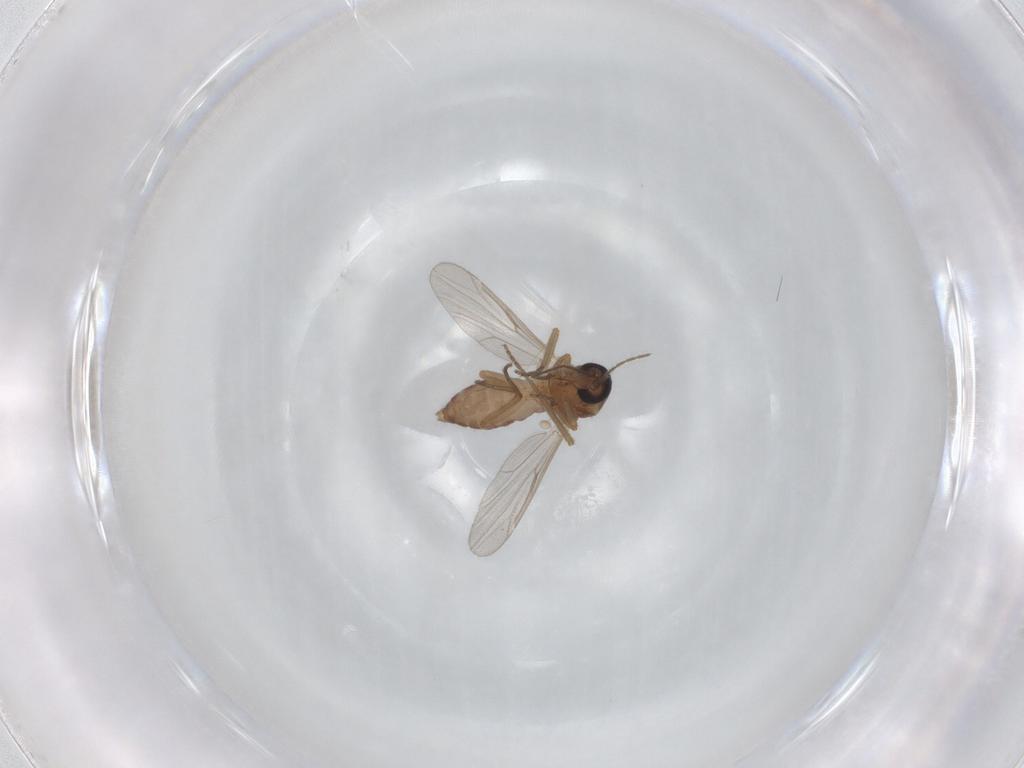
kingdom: Animalia
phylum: Arthropoda
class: Insecta
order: Diptera
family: Ceratopogonidae
